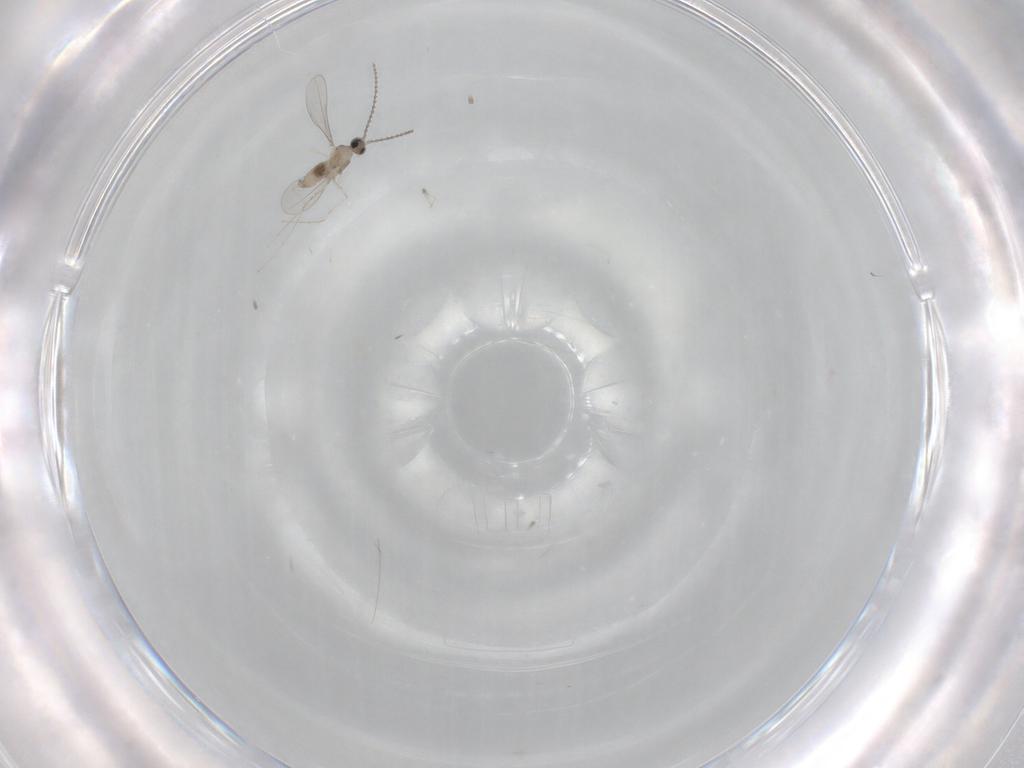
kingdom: Animalia
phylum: Arthropoda
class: Insecta
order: Diptera
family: Cecidomyiidae
